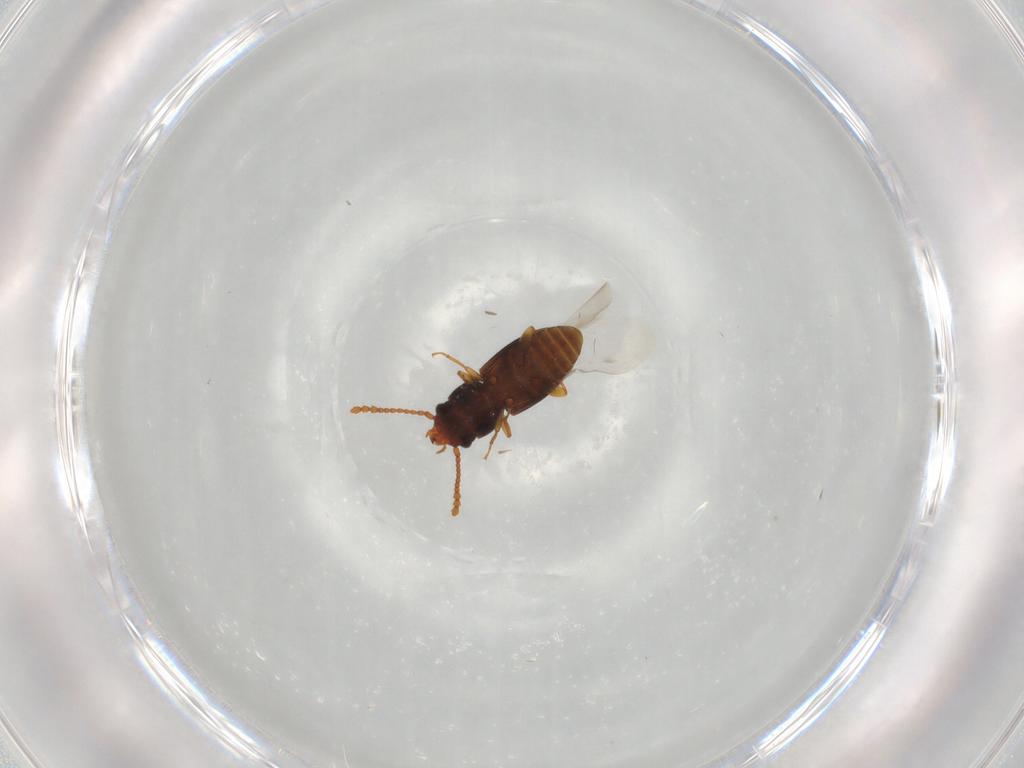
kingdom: Animalia
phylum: Arthropoda
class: Insecta
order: Coleoptera
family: Laemophloeidae
